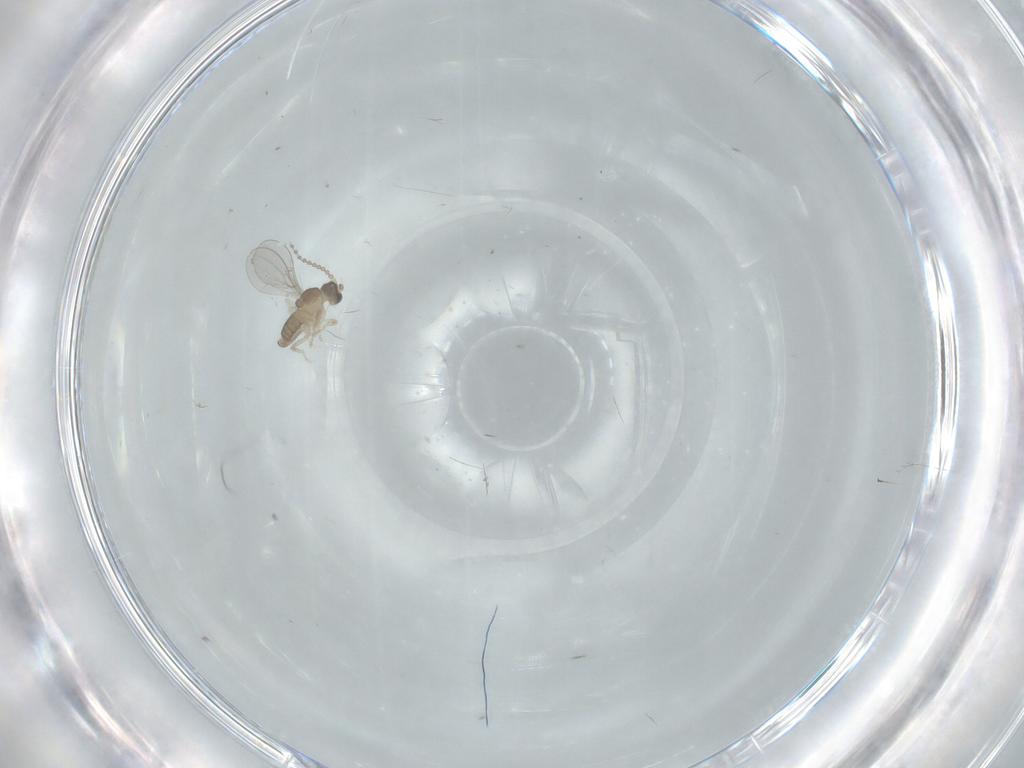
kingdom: Animalia
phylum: Arthropoda
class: Insecta
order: Diptera
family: Cecidomyiidae
